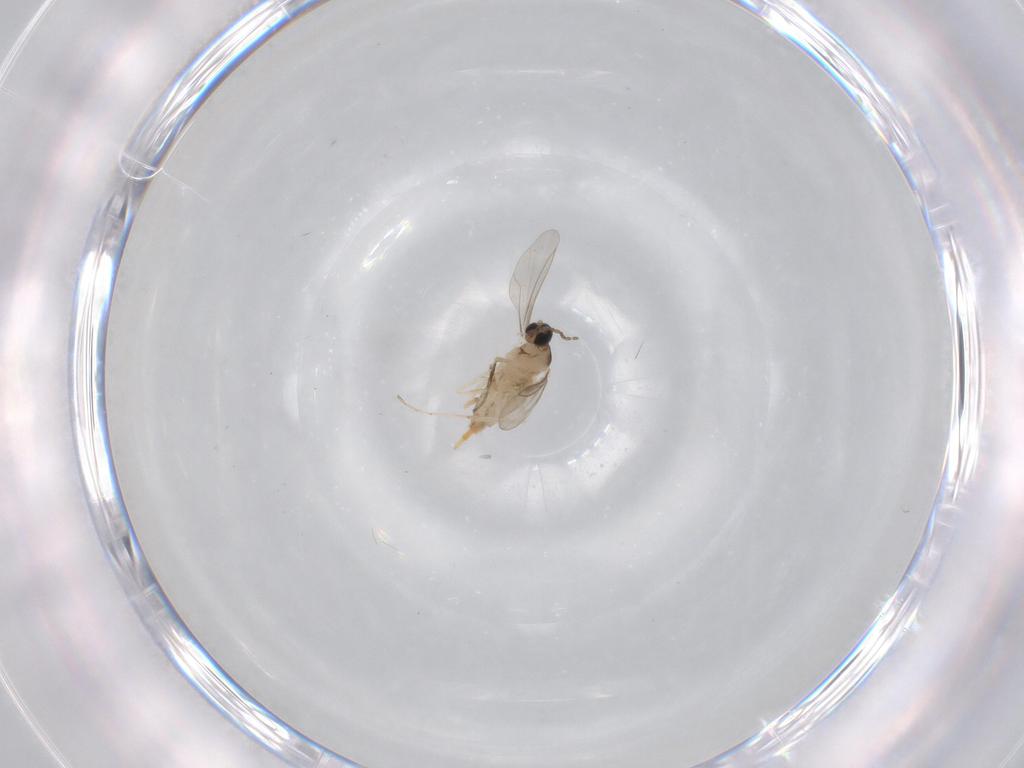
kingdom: Animalia
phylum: Arthropoda
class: Insecta
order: Diptera
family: Cecidomyiidae
